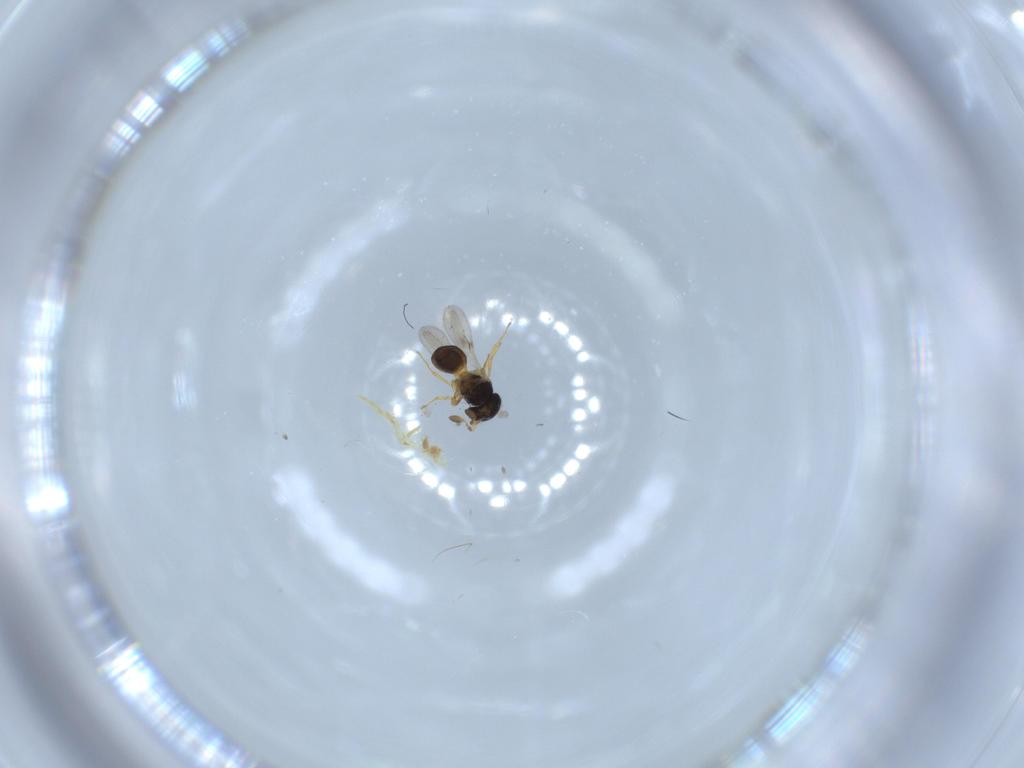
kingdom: Animalia
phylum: Arthropoda
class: Insecta
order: Hymenoptera
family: Scelionidae
